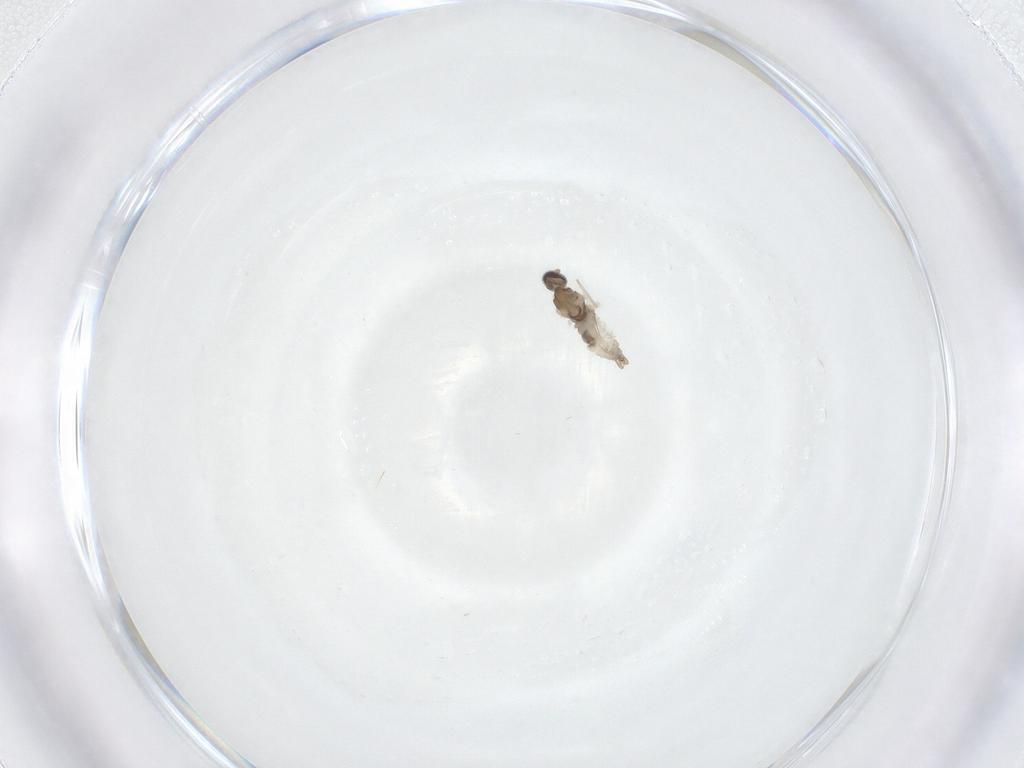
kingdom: Animalia
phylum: Arthropoda
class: Insecta
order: Diptera
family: Cecidomyiidae
